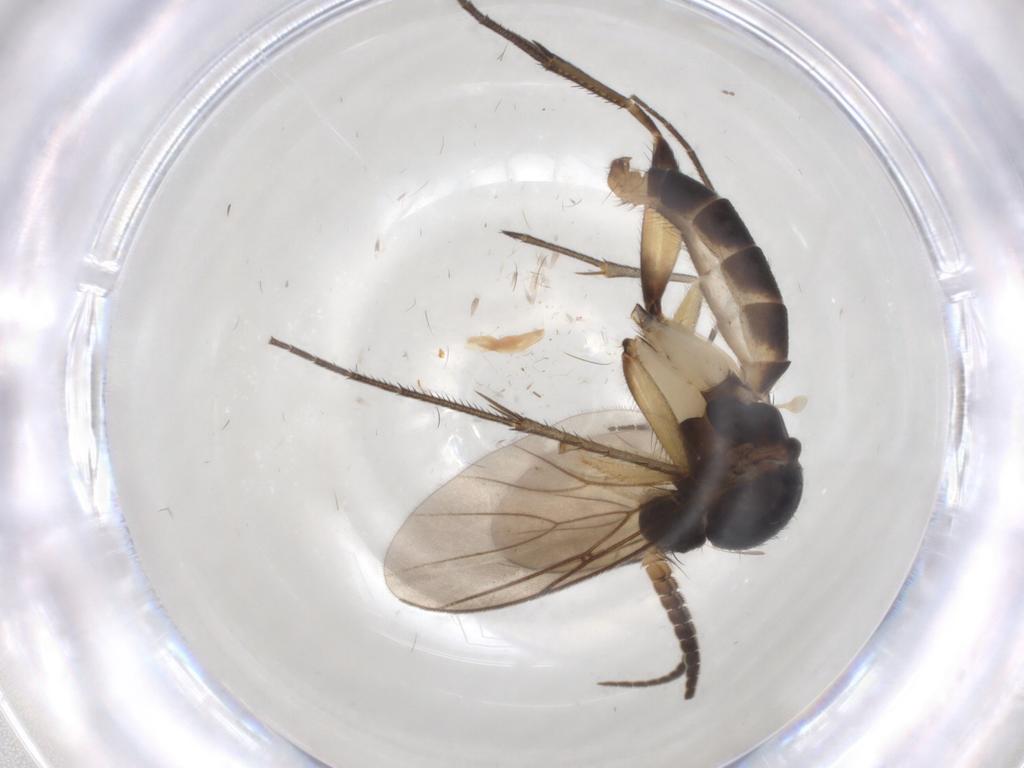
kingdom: Animalia
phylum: Arthropoda
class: Insecta
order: Diptera
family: Cecidomyiidae
